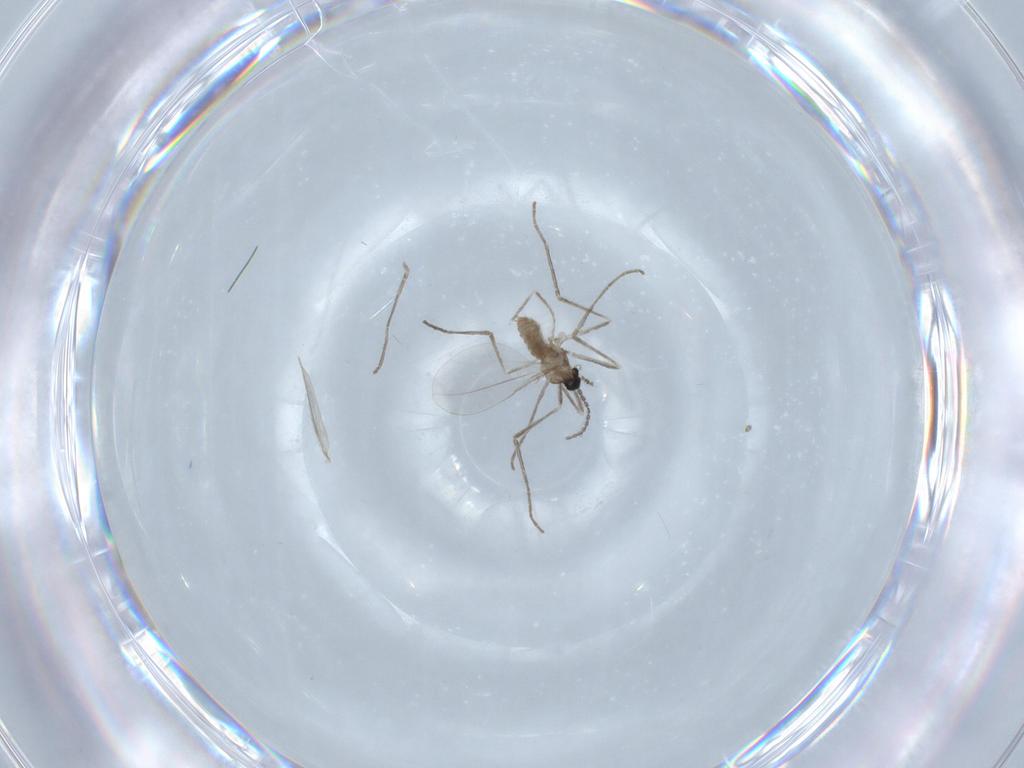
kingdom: Animalia
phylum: Arthropoda
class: Insecta
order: Diptera
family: Cecidomyiidae
